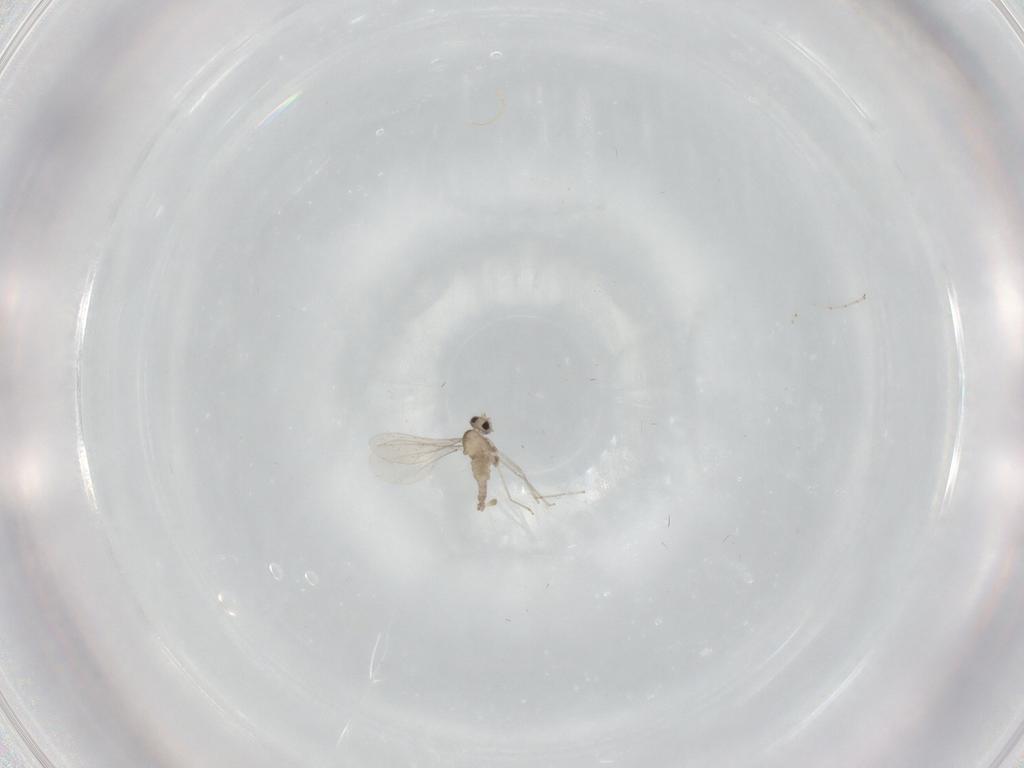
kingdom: Animalia
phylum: Arthropoda
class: Insecta
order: Diptera
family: Cecidomyiidae
